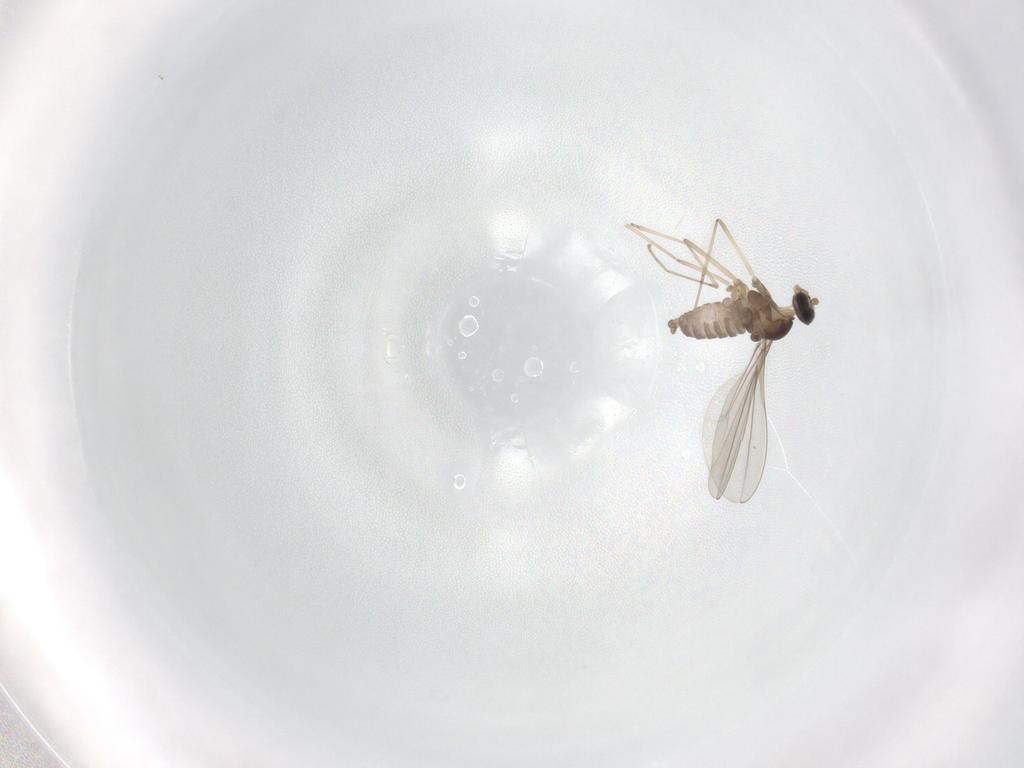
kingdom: Animalia
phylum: Arthropoda
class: Insecta
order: Diptera
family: Cecidomyiidae
